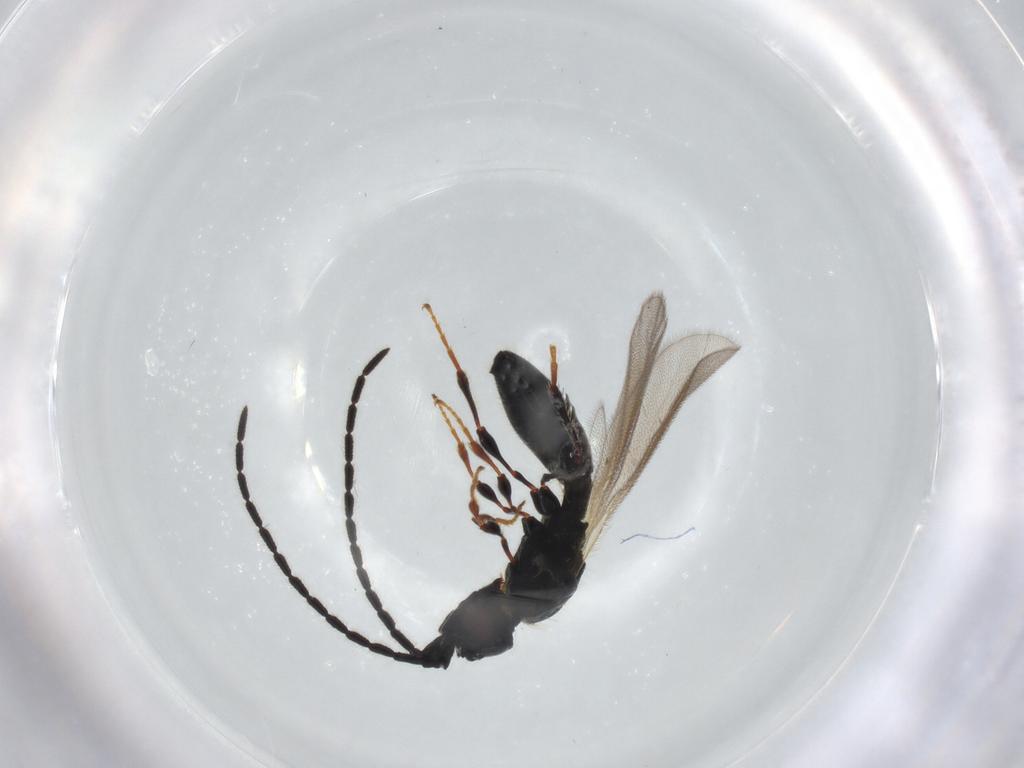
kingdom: Animalia
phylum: Arthropoda
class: Insecta
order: Hymenoptera
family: Diapriidae
